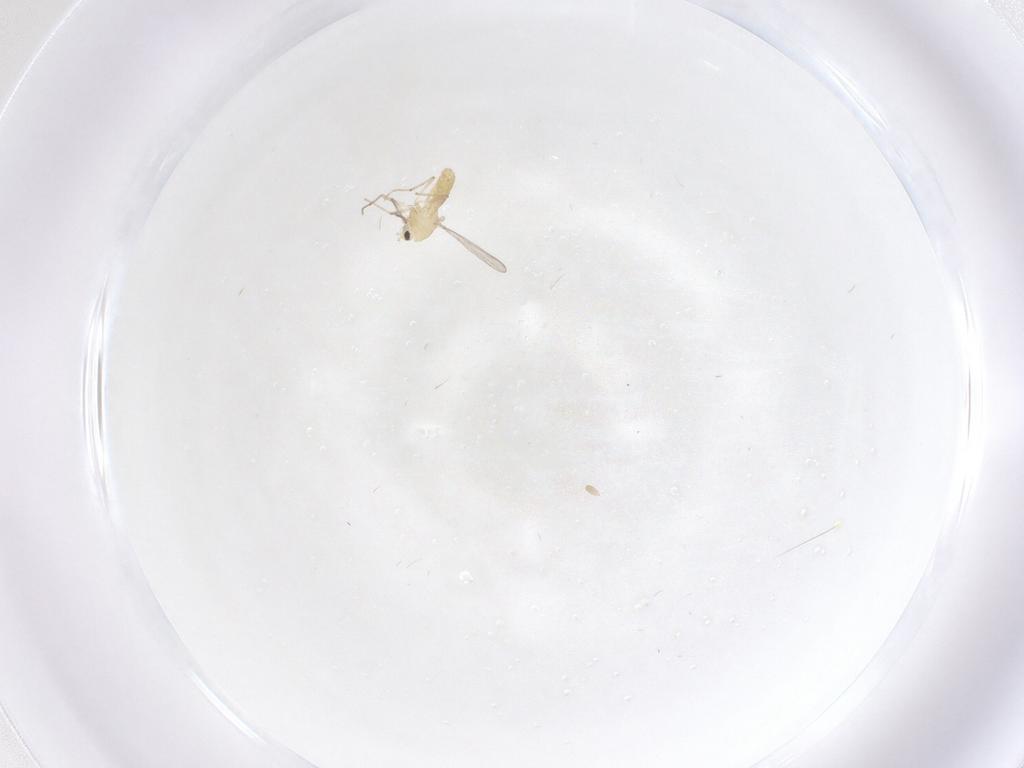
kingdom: Animalia
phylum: Arthropoda
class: Insecta
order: Diptera
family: Chironomidae
